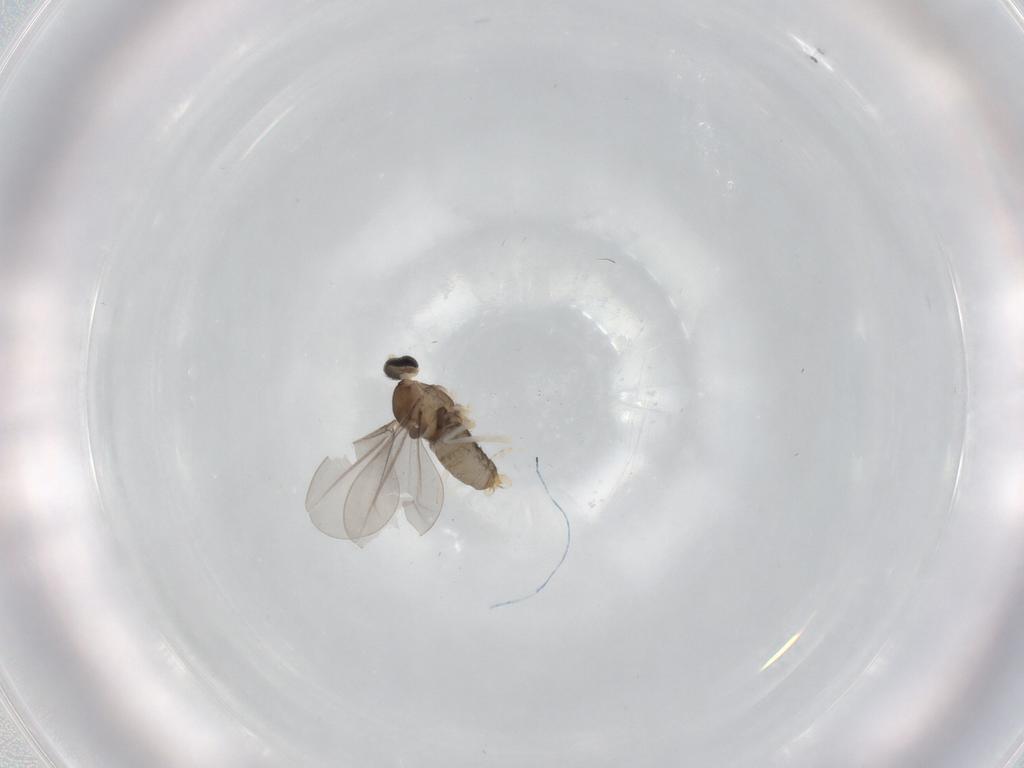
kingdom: Animalia
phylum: Arthropoda
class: Insecta
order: Diptera
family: Cecidomyiidae
